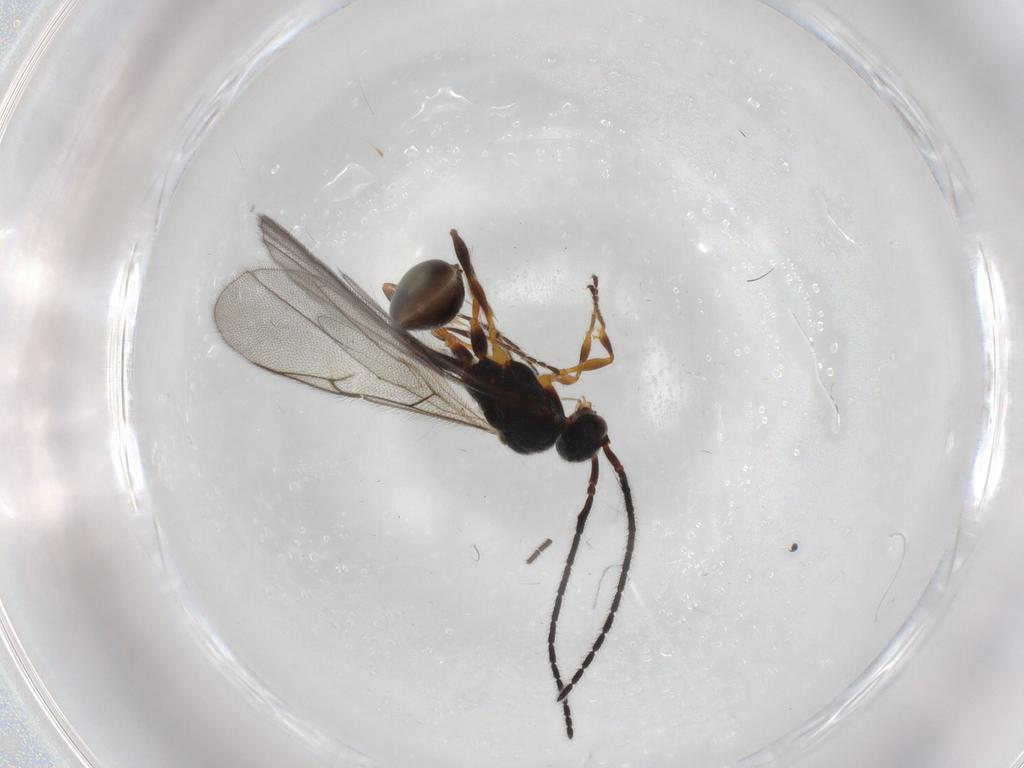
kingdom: Animalia
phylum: Arthropoda
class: Insecta
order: Hymenoptera
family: Diapriidae
